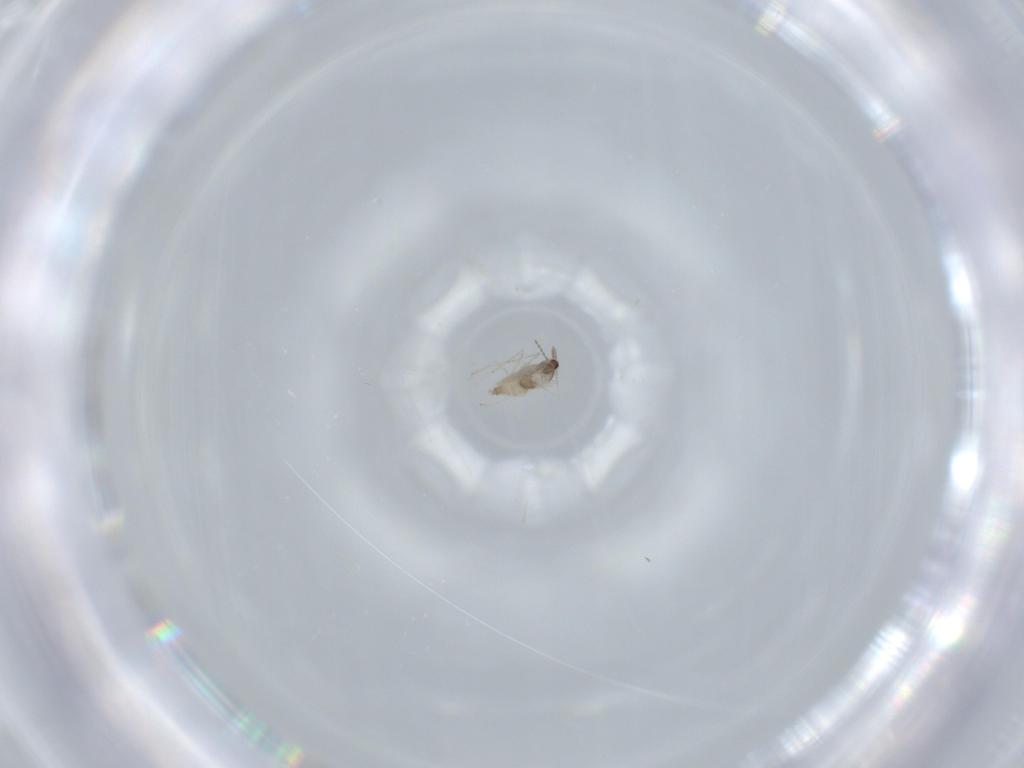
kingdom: Animalia
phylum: Arthropoda
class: Insecta
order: Diptera
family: Cecidomyiidae
